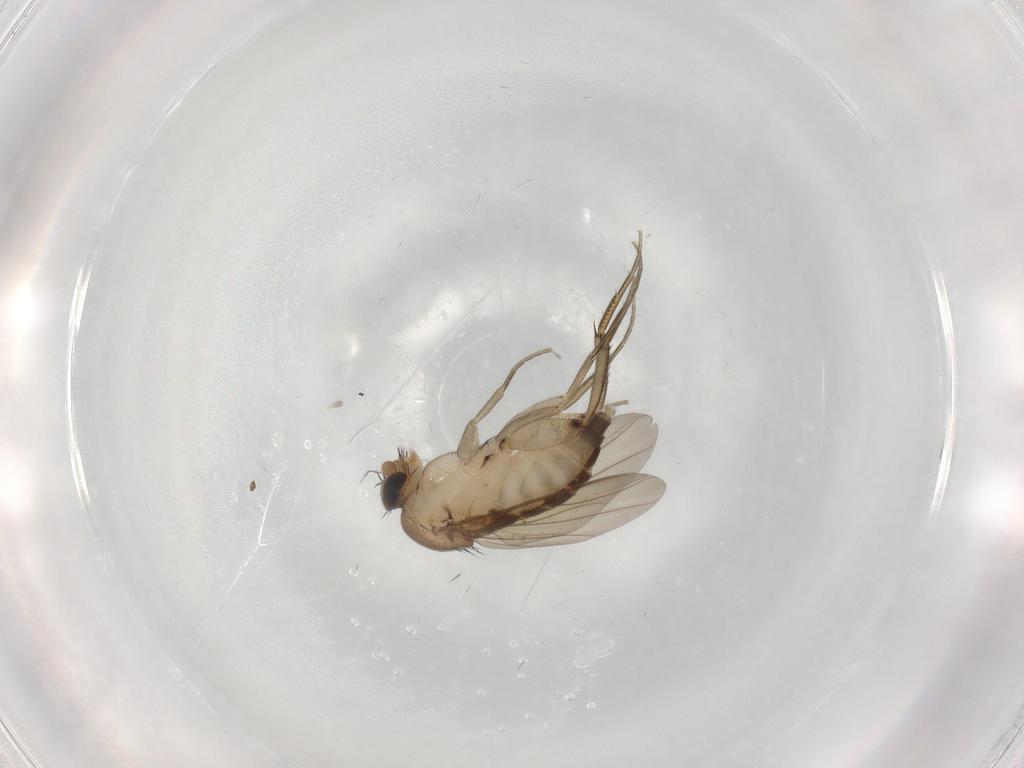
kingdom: Animalia
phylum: Arthropoda
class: Insecta
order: Diptera
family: Phoridae
